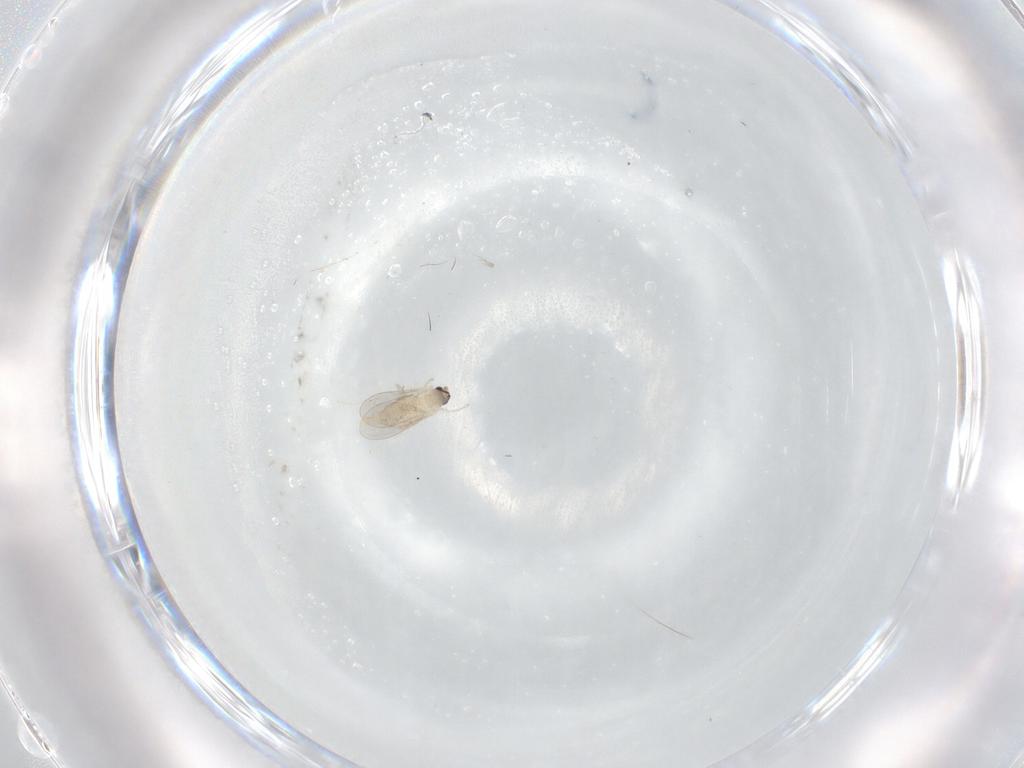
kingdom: Animalia
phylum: Arthropoda
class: Insecta
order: Diptera
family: Cecidomyiidae
